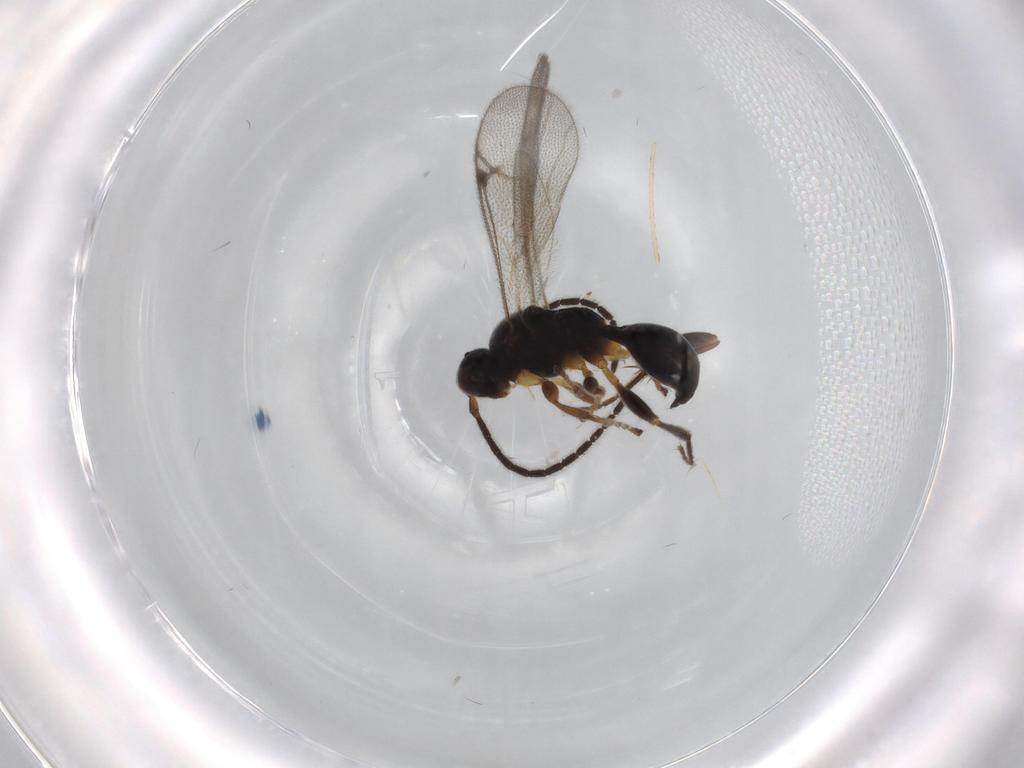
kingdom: Animalia
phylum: Arthropoda
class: Insecta
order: Hymenoptera
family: Proctotrupidae
